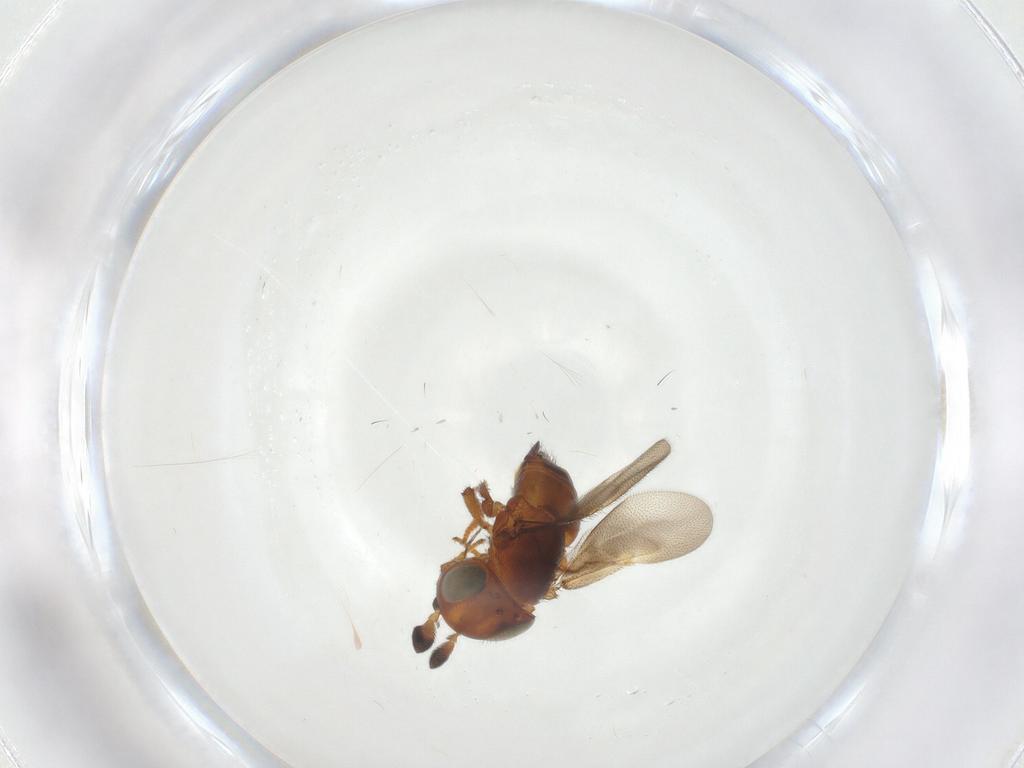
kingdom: Animalia
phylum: Arthropoda
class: Insecta
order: Hymenoptera
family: Encyrtidae
